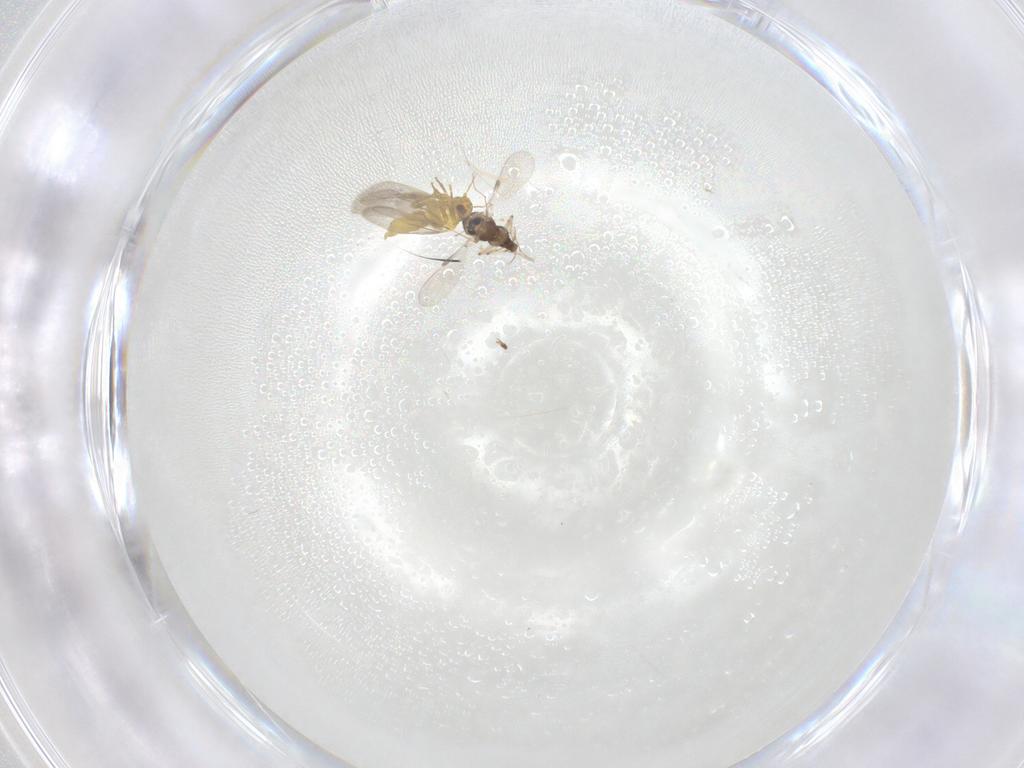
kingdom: Animalia
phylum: Arthropoda
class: Insecta
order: Diptera
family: Chironomidae
